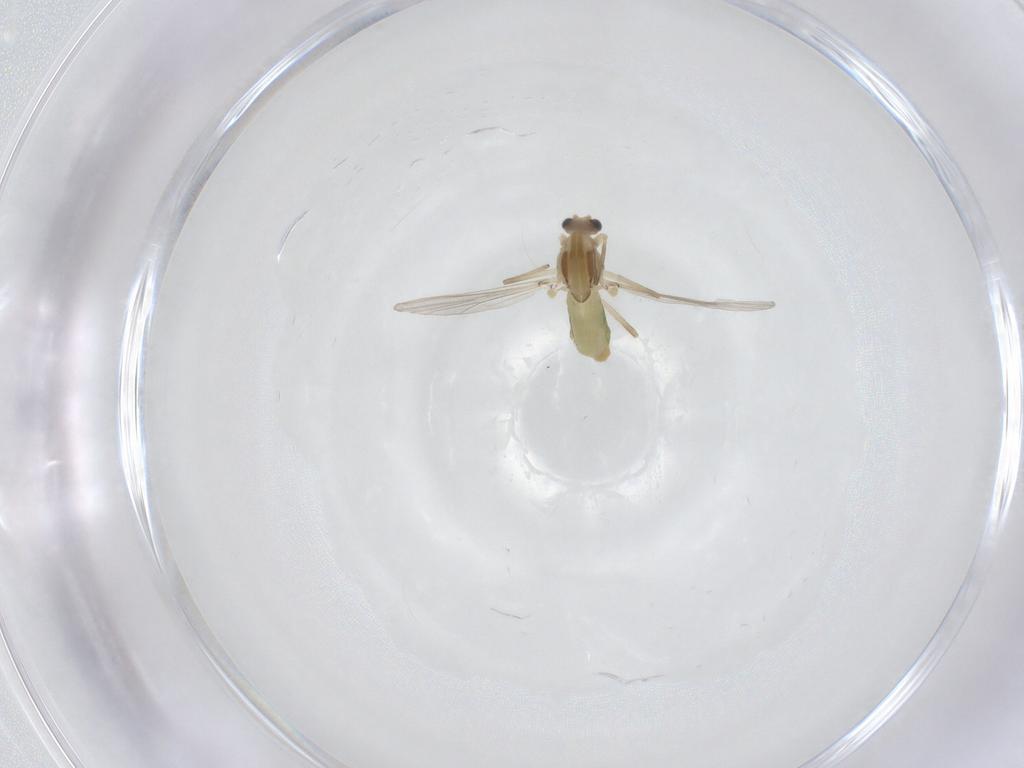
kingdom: Animalia
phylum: Arthropoda
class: Insecta
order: Diptera
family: Chironomidae
